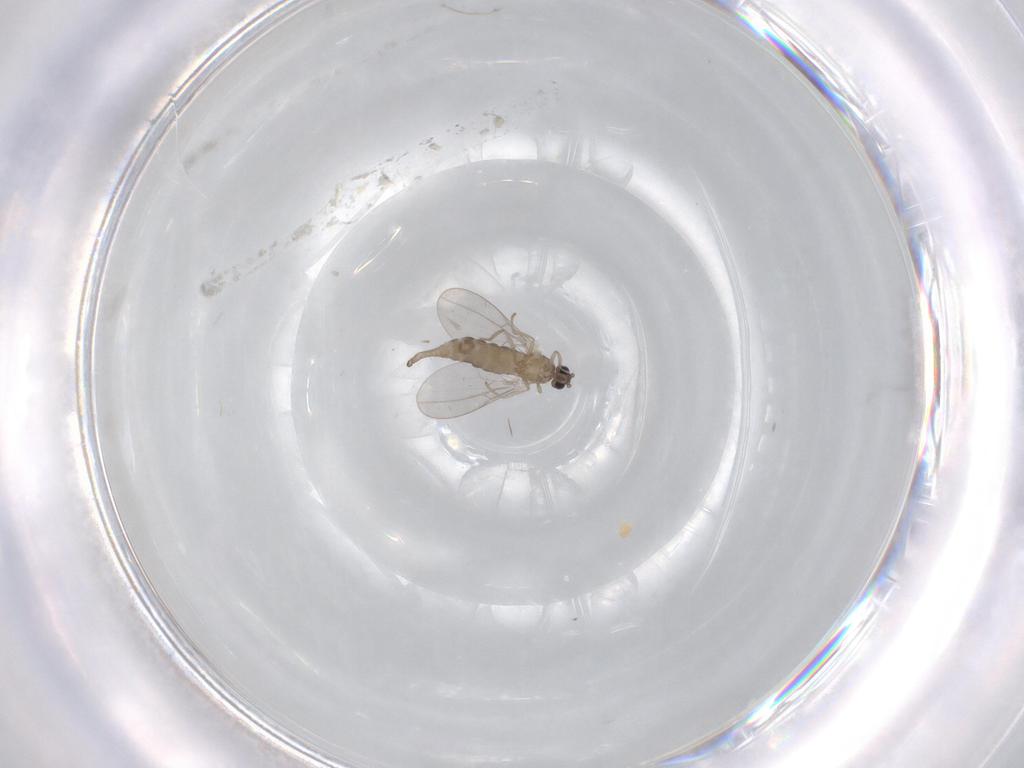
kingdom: Animalia
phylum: Arthropoda
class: Insecta
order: Diptera
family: Cecidomyiidae
